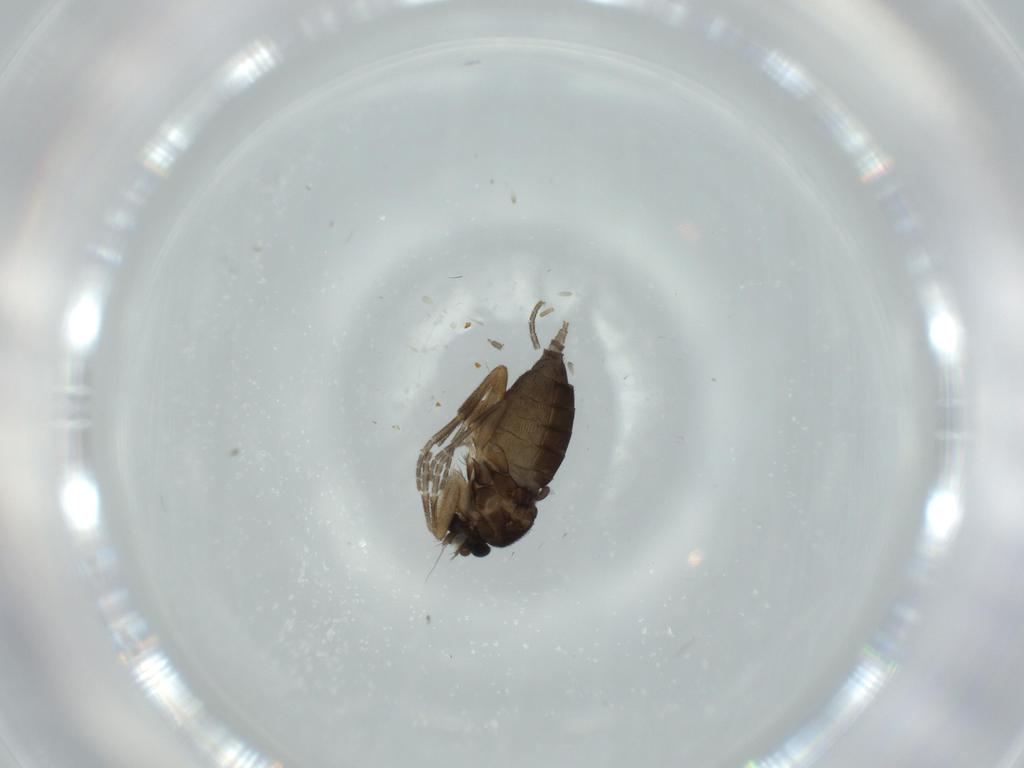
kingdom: Animalia
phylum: Arthropoda
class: Insecta
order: Diptera
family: Phoridae
